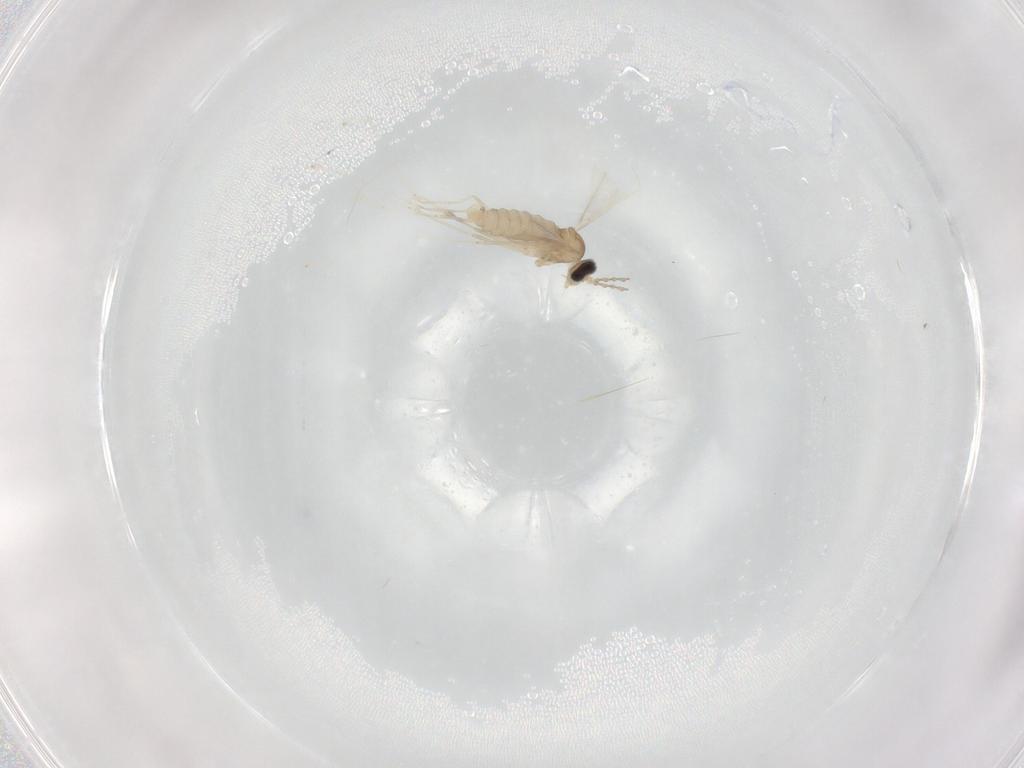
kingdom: Animalia
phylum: Arthropoda
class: Insecta
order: Diptera
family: Cecidomyiidae
